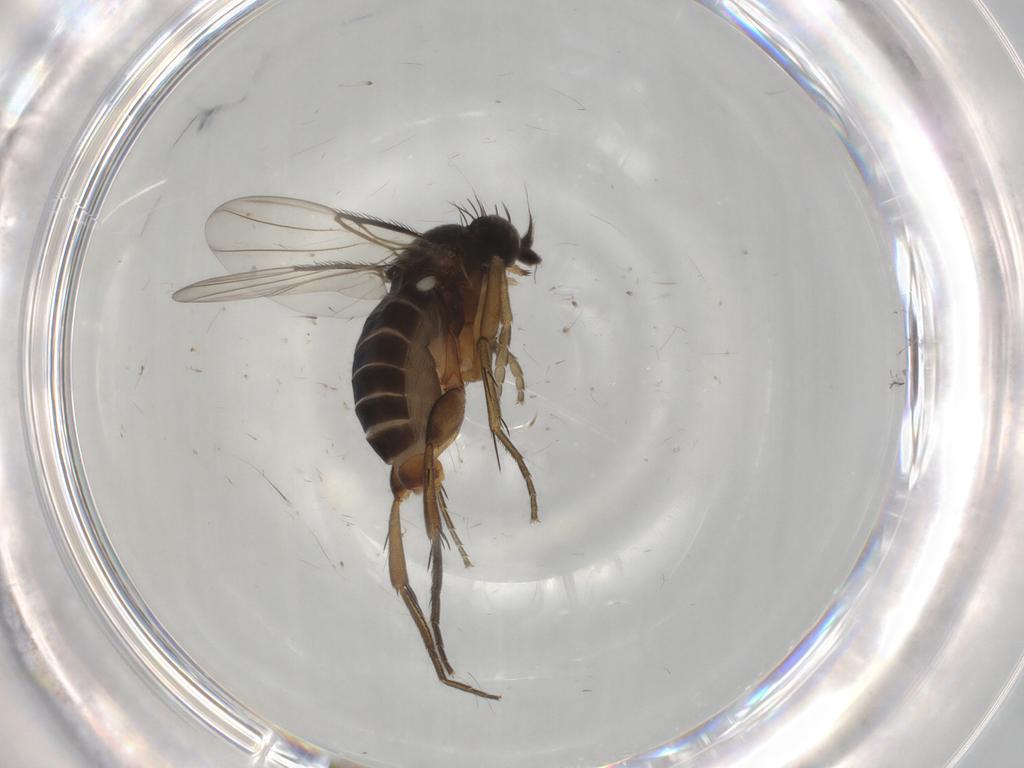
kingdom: Animalia
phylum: Arthropoda
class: Insecta
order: Diptera
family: Phoridae
